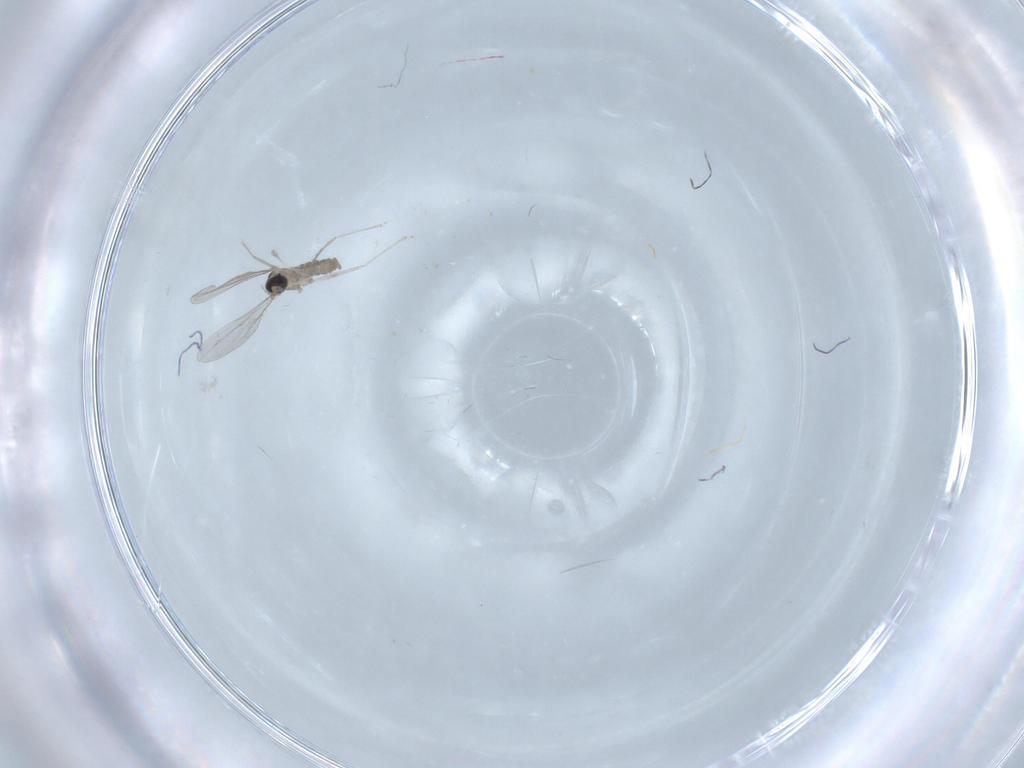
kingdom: Animalia
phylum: Arthropoda
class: Insecta
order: Diptera
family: Cecidomyiidae
